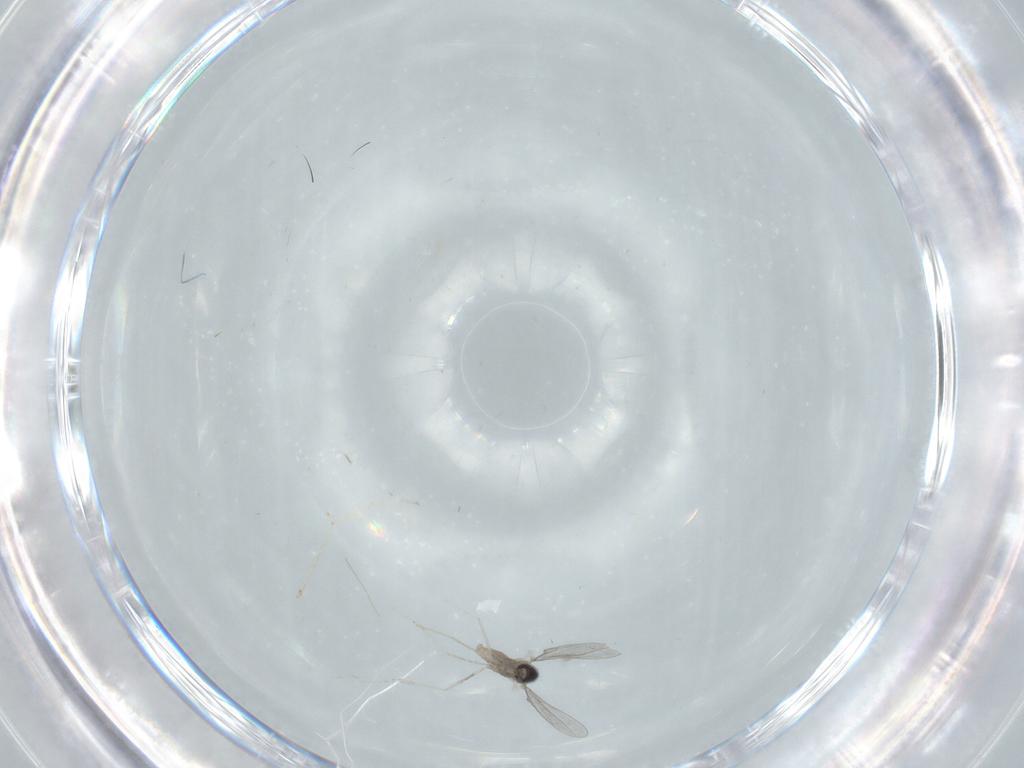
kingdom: Animalia
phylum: Arthropoda
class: Insecta
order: Diptera
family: Cecidomyiidae
